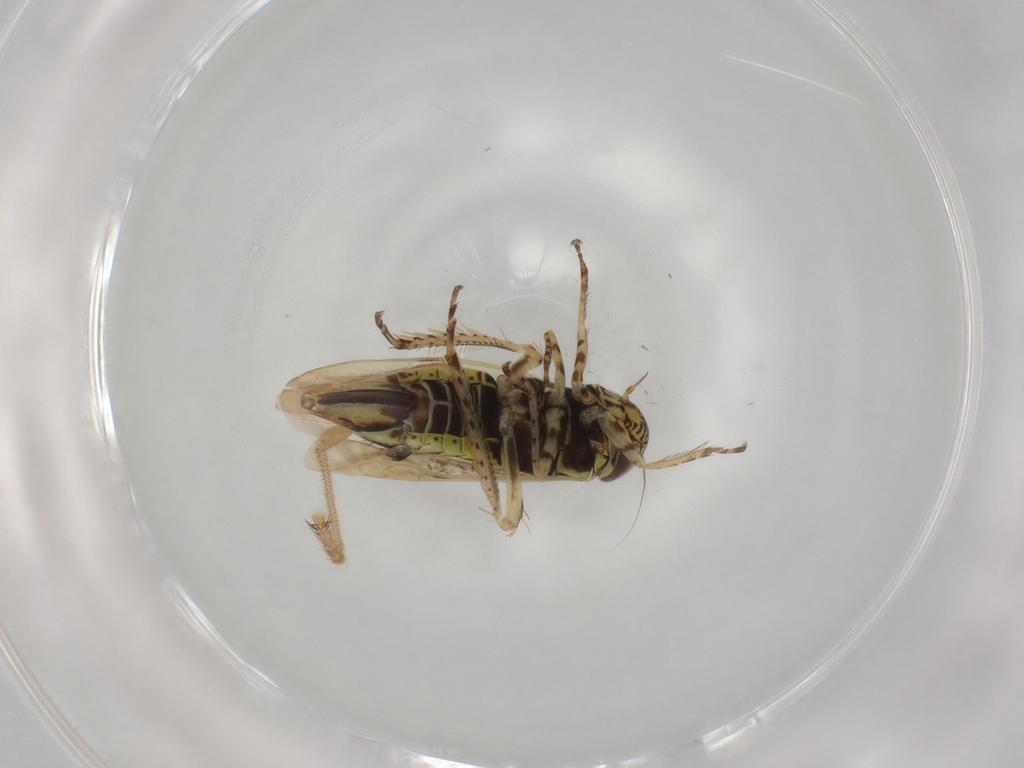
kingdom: Animalia
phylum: Arthropoda
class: Insecta
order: Hemiptera
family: Cicadellidae
